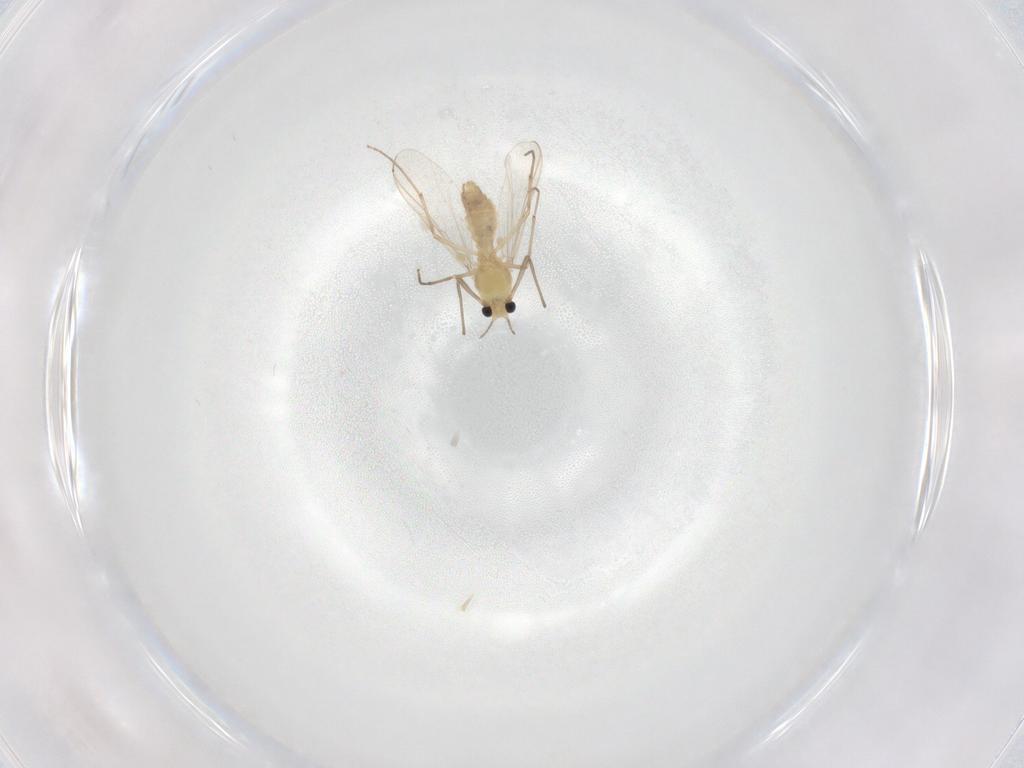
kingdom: Animalia
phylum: Arthropoda
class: Insecta
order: Diptera
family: Chironomidae
